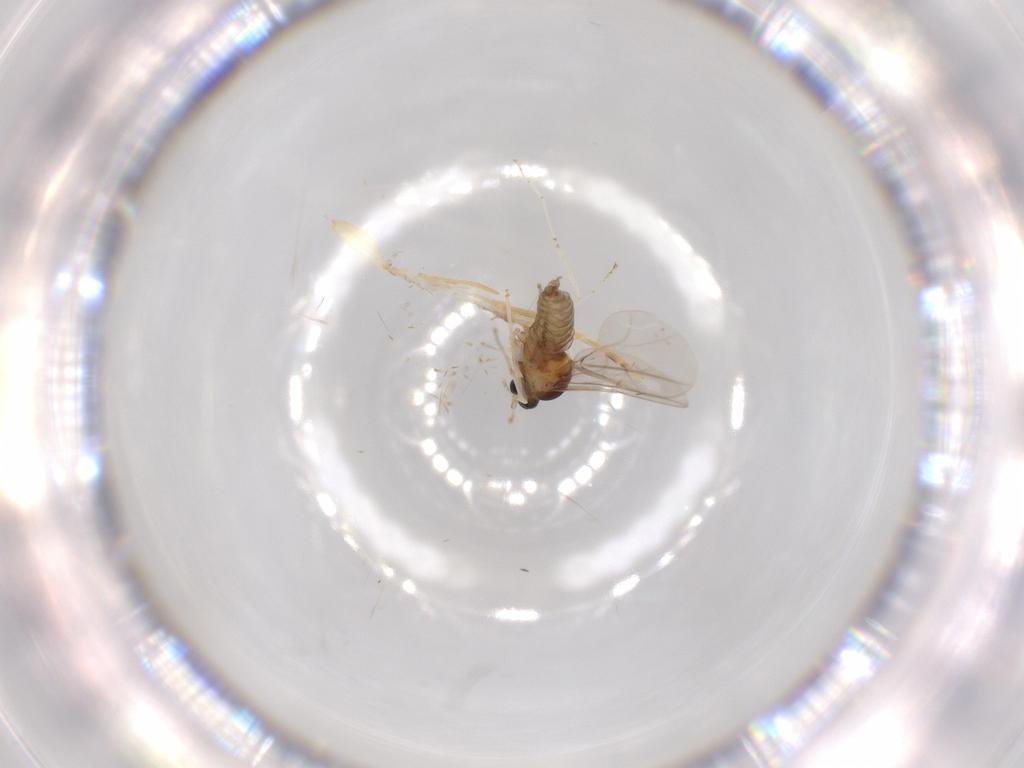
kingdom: Animalia
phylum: Arthropoda
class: Insecta
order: Diptera
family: Cecidomyiidae
